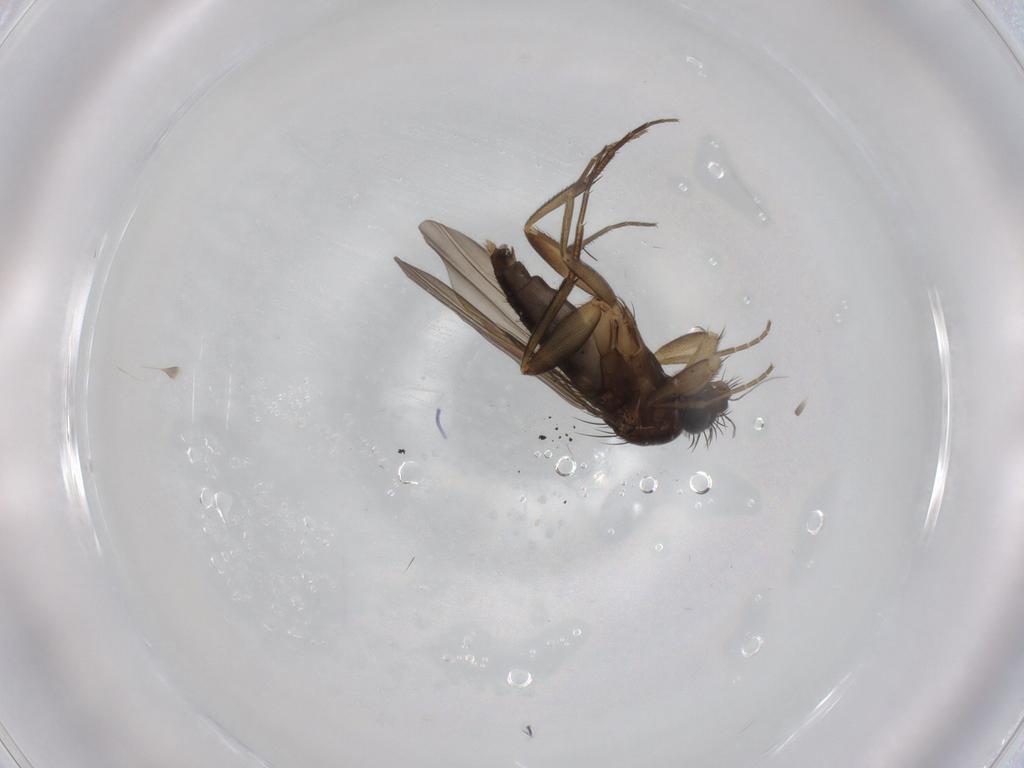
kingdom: Animalia
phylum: Arthropoda
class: Insecta
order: Diptera
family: Phoridae
